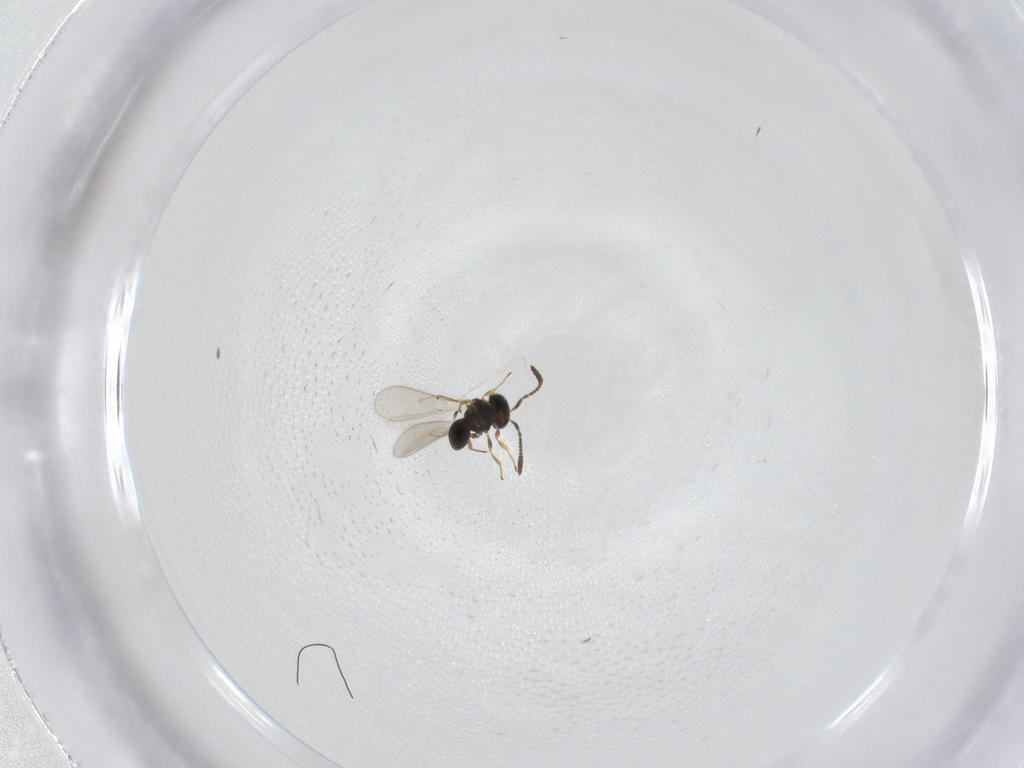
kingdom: Animalia
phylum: Arthropoda
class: Insecta
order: Hymenoptera
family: Scelionidae
